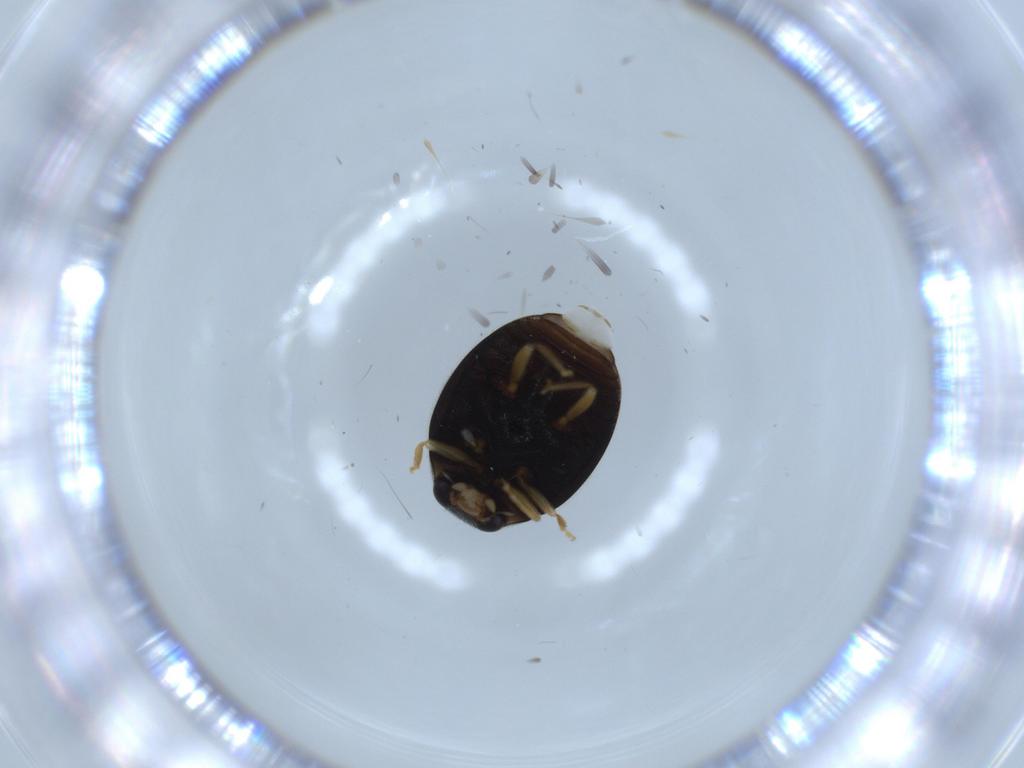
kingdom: Animalia
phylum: Arthropoda
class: Insecta
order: Coleoptera
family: Coccinellidae
